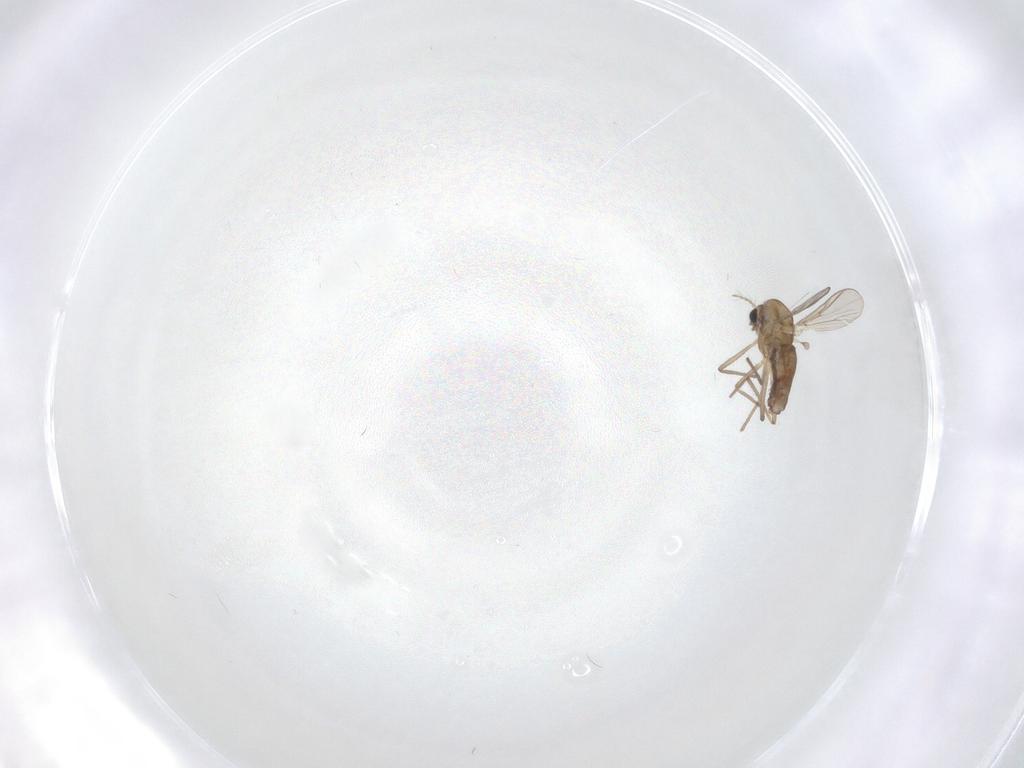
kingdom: Animalia
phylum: Arthropoda
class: Insecta
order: Diptera
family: Chironomidae
